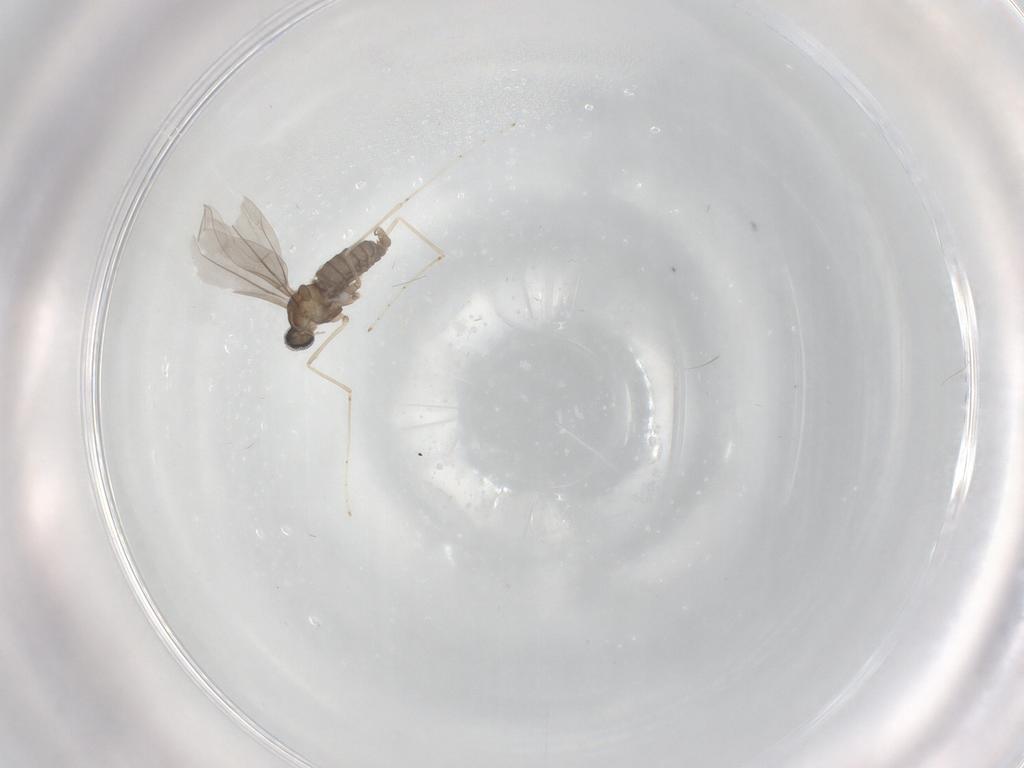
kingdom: Animalia
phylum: Arthropoda
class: Insecta
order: Diptera
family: Cecidomyiidae
